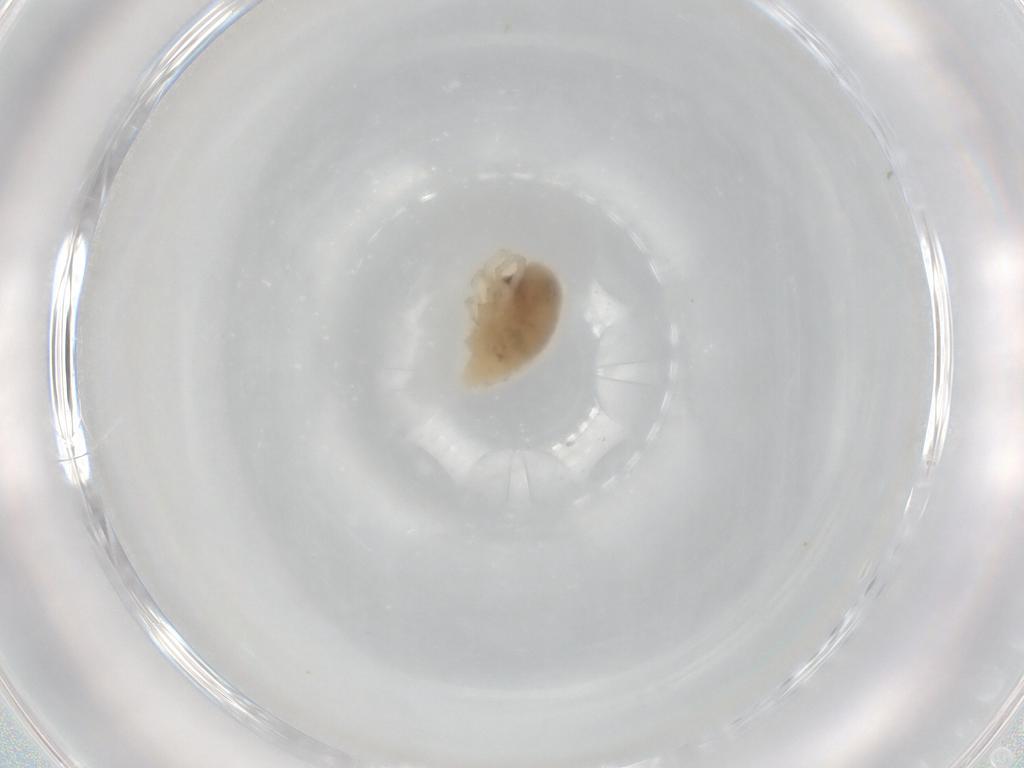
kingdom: Animalia
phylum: Arthropoda
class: Arachnida
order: Trombidiformes
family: Bdellidae
